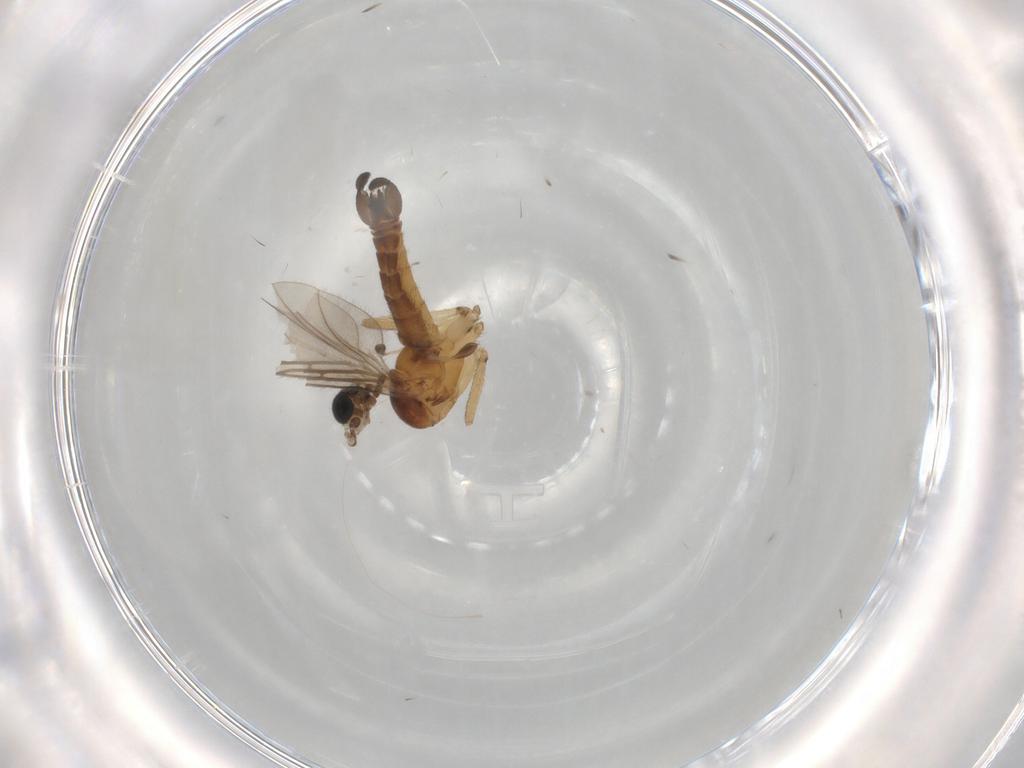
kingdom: Animalia
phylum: Arthropoda
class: Insecta
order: Diptera
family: Sciaridae
